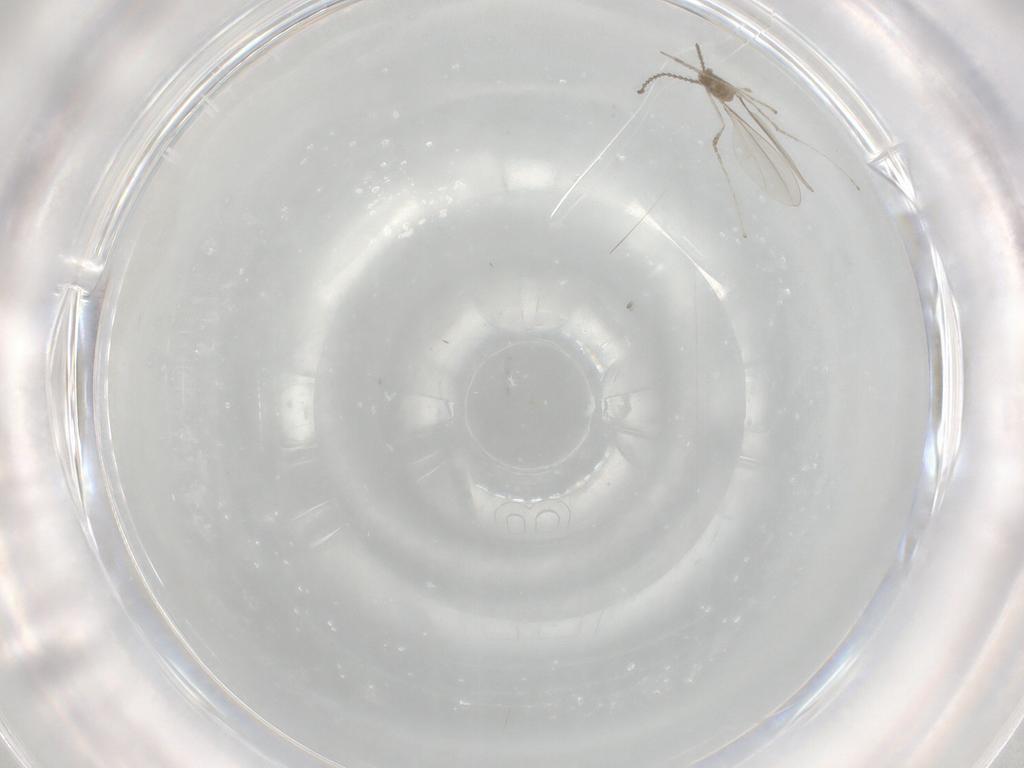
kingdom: Animalia
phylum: Arthropoda
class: Insecta
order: Diptera
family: Cecidomyiidae
